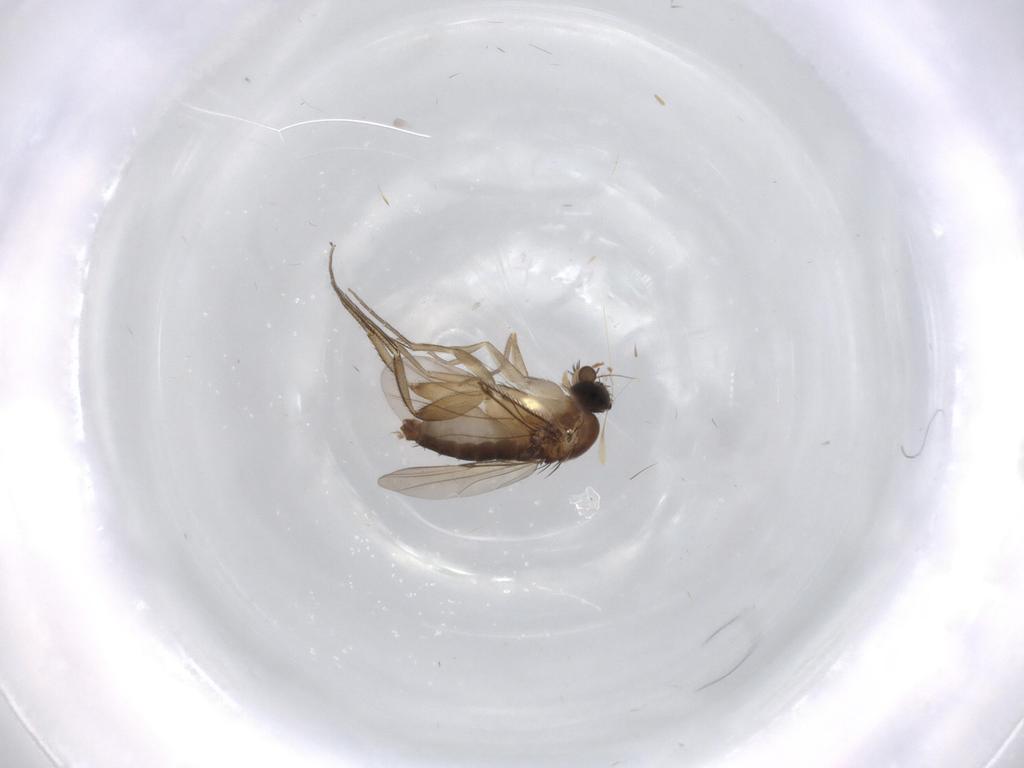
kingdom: Animalia
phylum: Arthropoda
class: Insecta
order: Diptera
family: Phoridae
